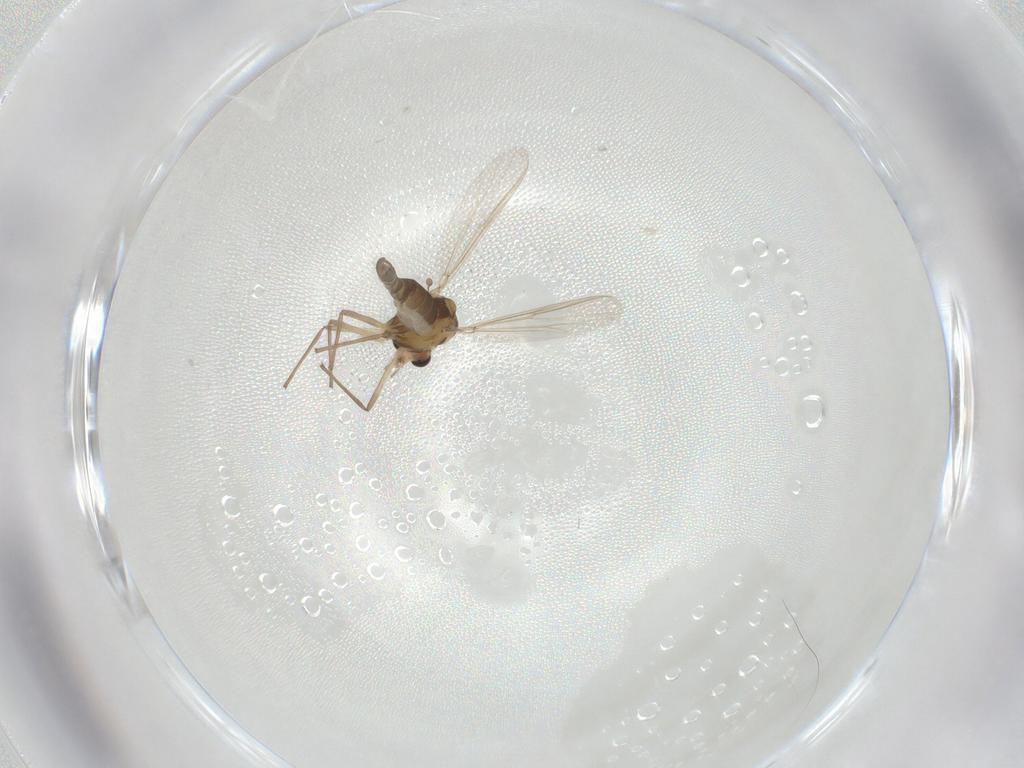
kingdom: Animalia
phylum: Arthropoda
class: Insecta
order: Diptera
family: Chironomidae
